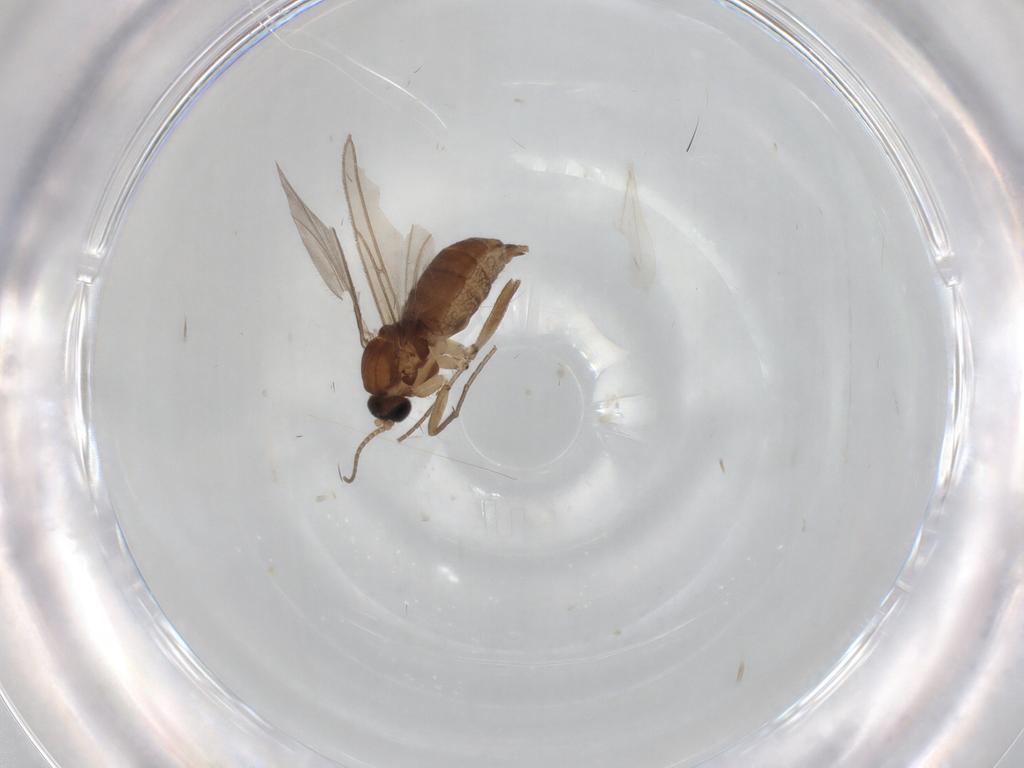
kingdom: Animalia
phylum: Arthropoda
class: Insecta
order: Diptera
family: Sciaridae
